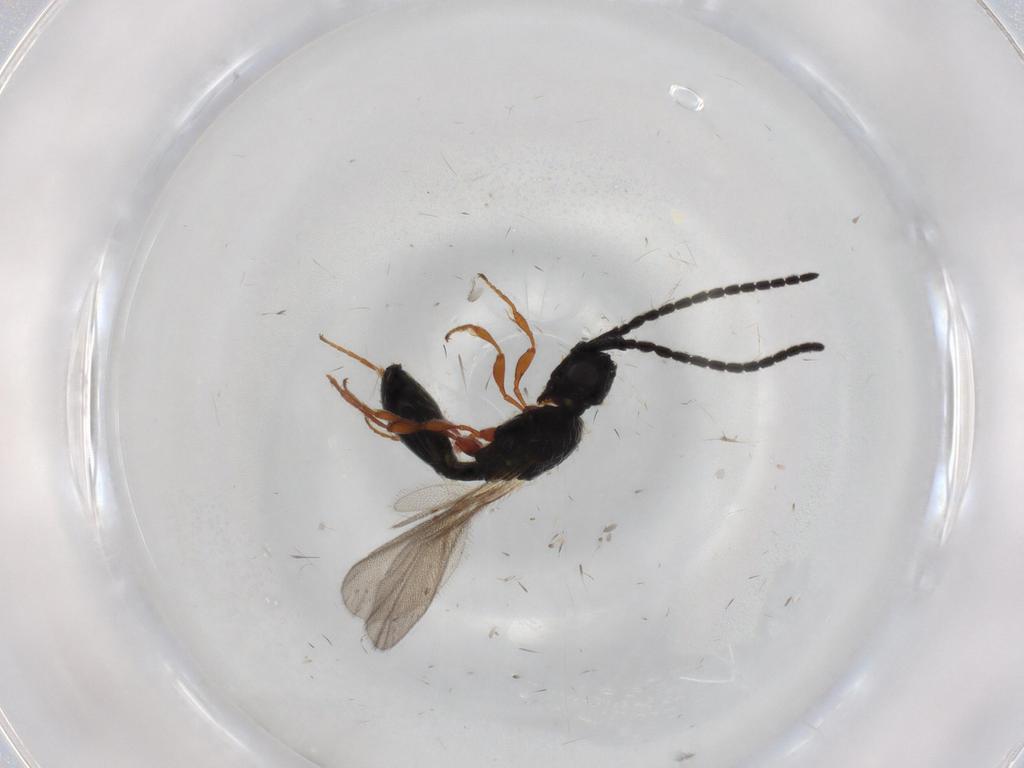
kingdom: Animalia
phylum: Arthropoda
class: Insecta
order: Hymenoptera
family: Diapriidae
